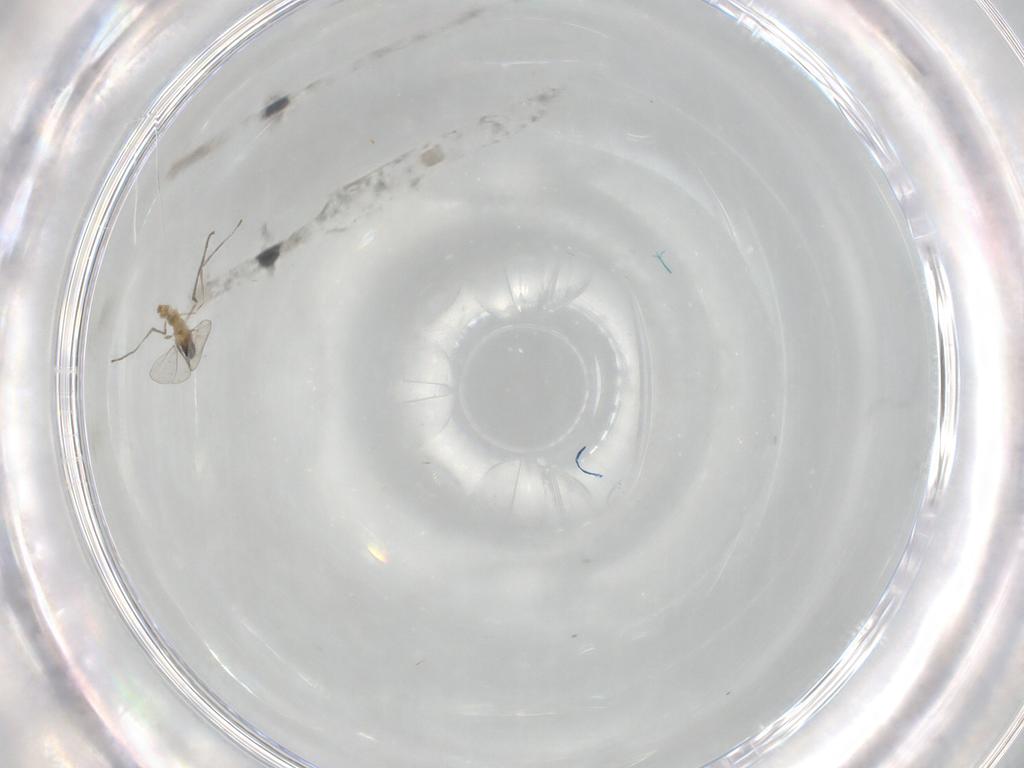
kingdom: Animalia
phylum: Arthropoda
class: Insecta
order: Diptera
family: Cecidomyiidae
